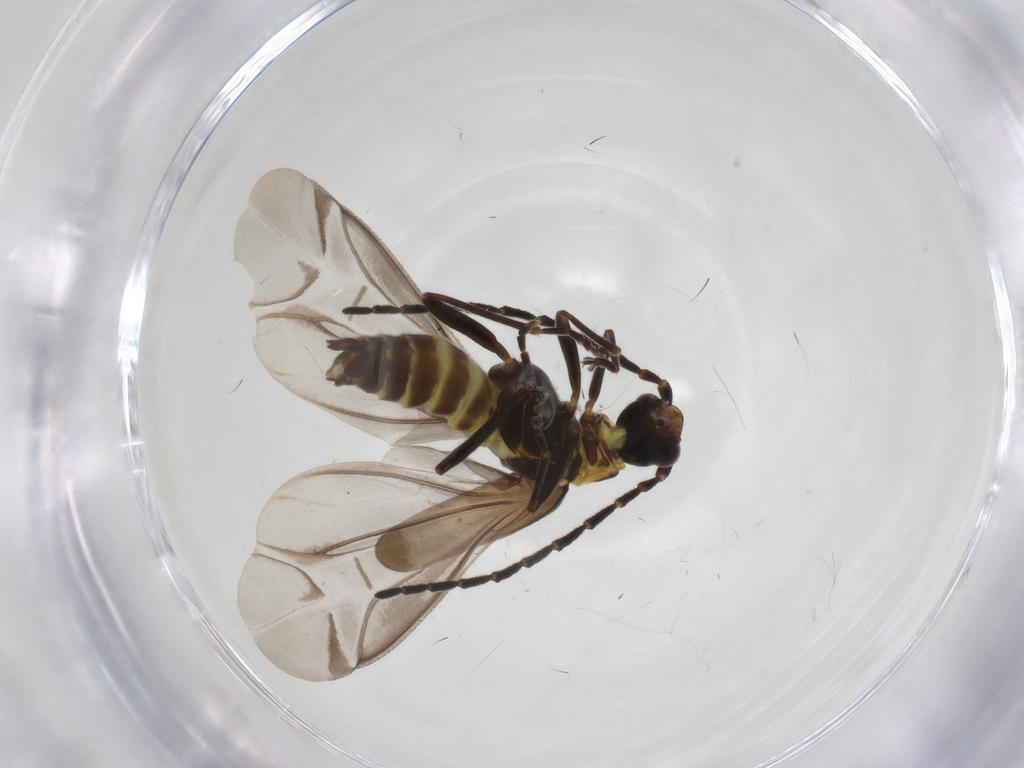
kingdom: Animalia
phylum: Arthropoda
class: Insecta
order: Coleoptera
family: Cantharidae
